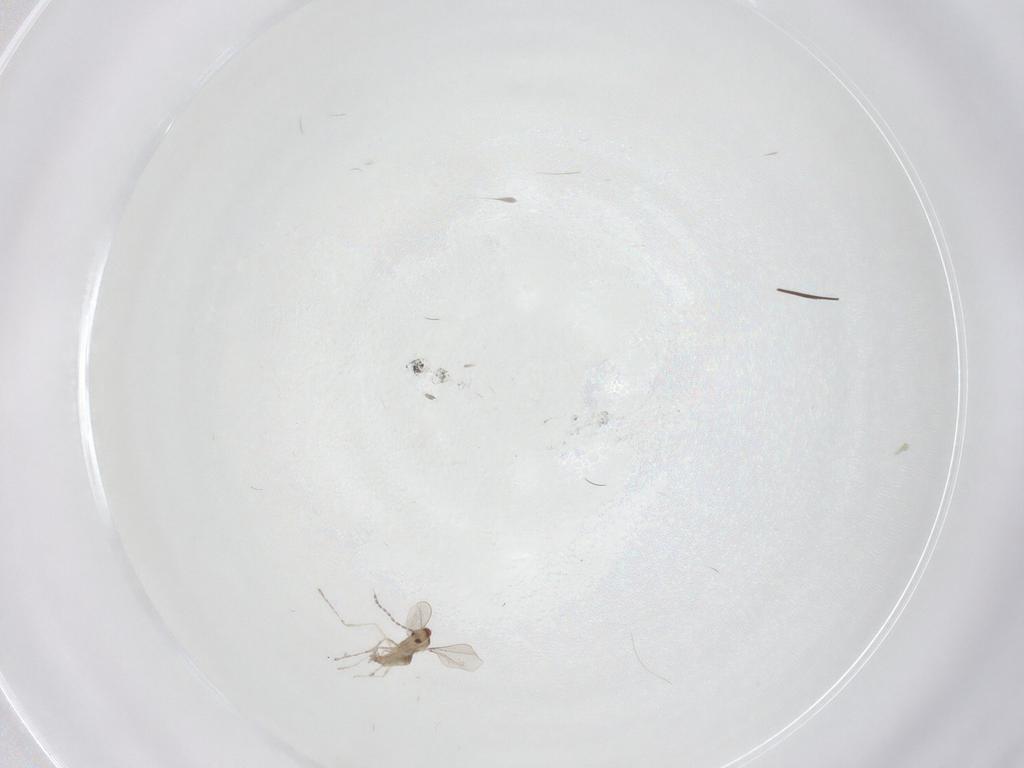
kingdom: Animalia
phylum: Arthropoda
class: Insecta
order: Diptera
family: Cecidomyiidae
